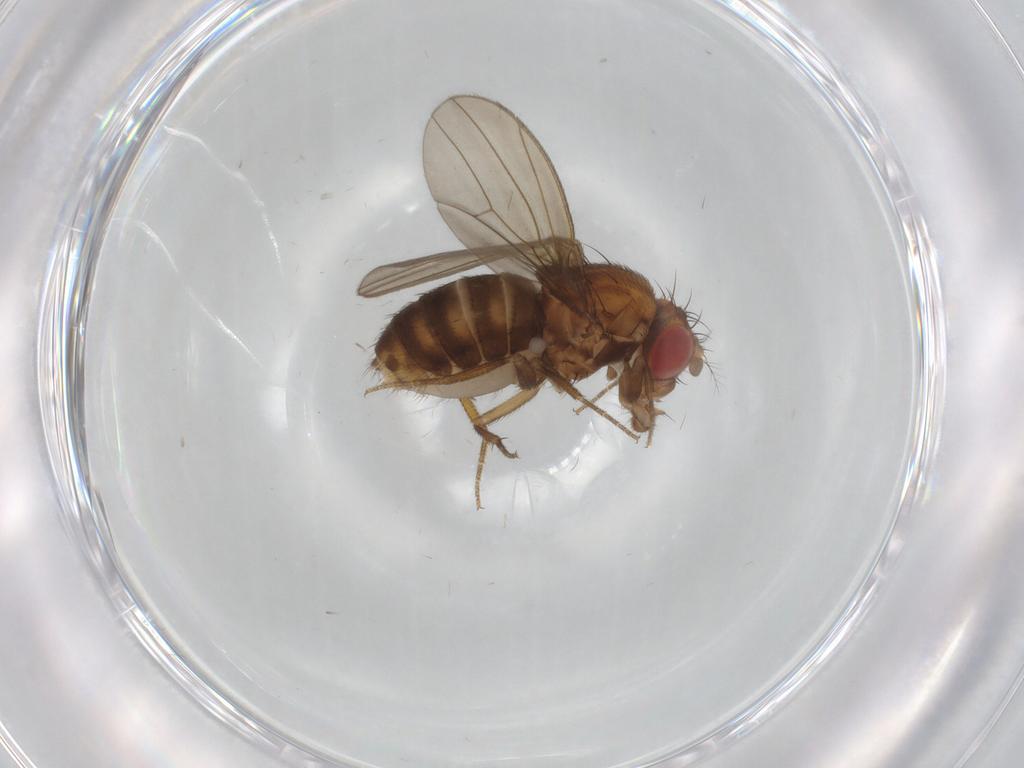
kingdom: Animalia
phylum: Arthropoda
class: Insecta
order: Diptera
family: Drosophilidae
